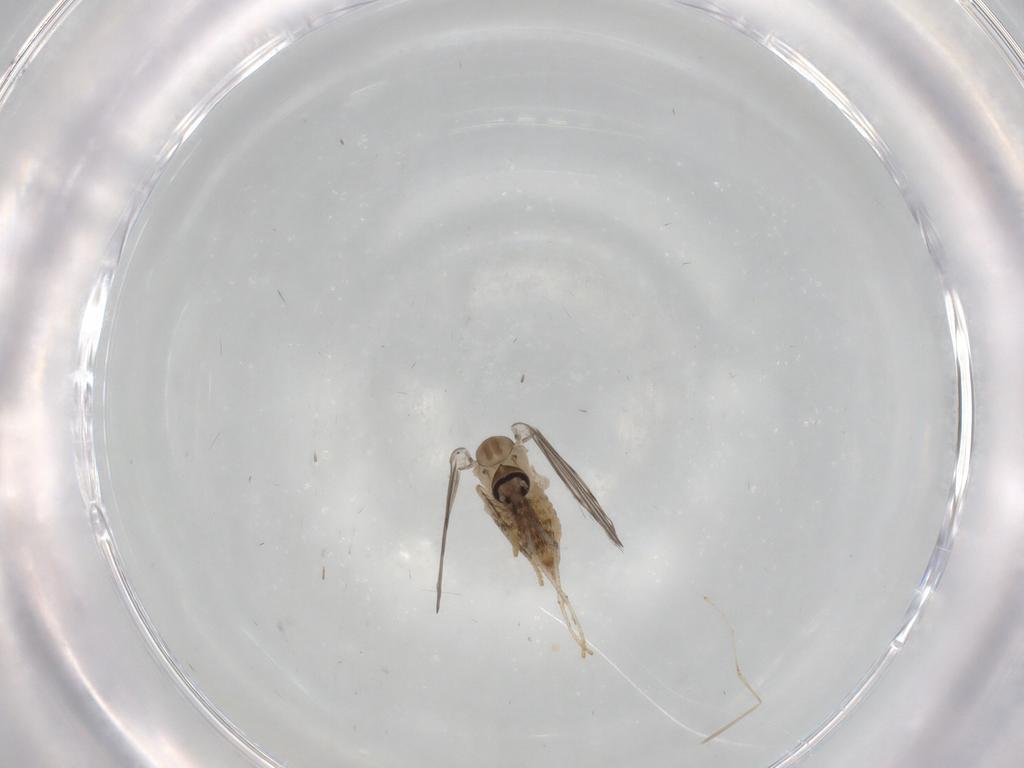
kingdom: Animalia
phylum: Arthropoda
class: Insecta
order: Diptera
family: Psychodidae
